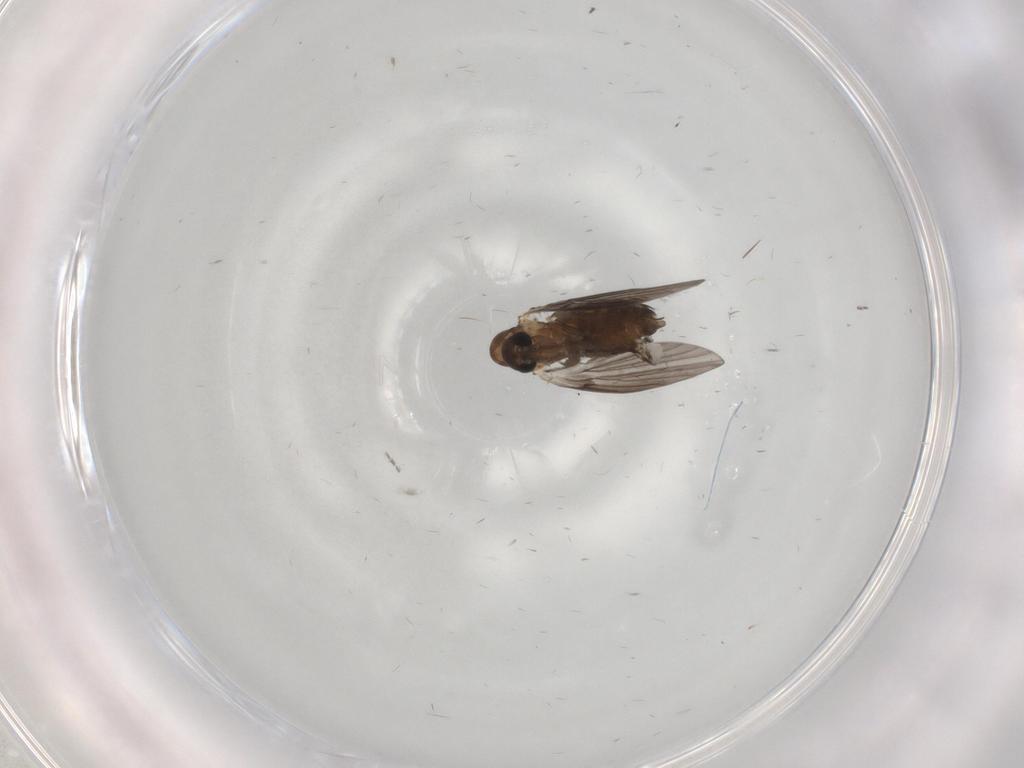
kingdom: Animalia
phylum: Arthropoda
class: Insecta
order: Diptera
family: Psychodidae
